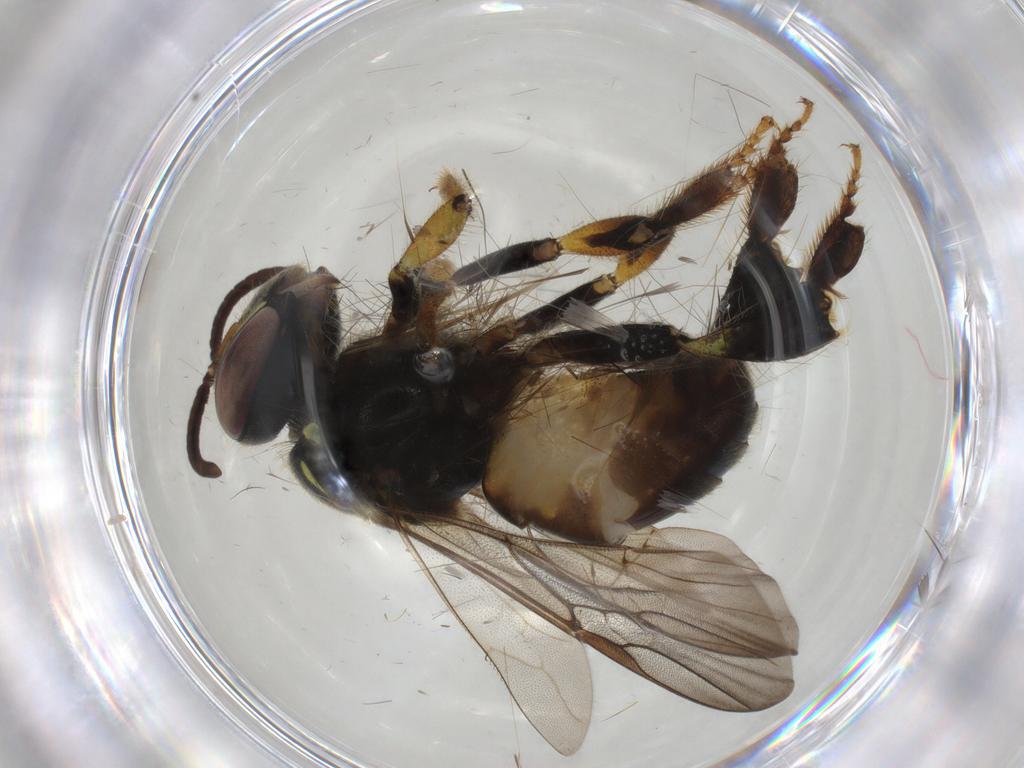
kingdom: Animalia
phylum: Arthropoda
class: Insecta
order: Hymenoptera
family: Apidae
